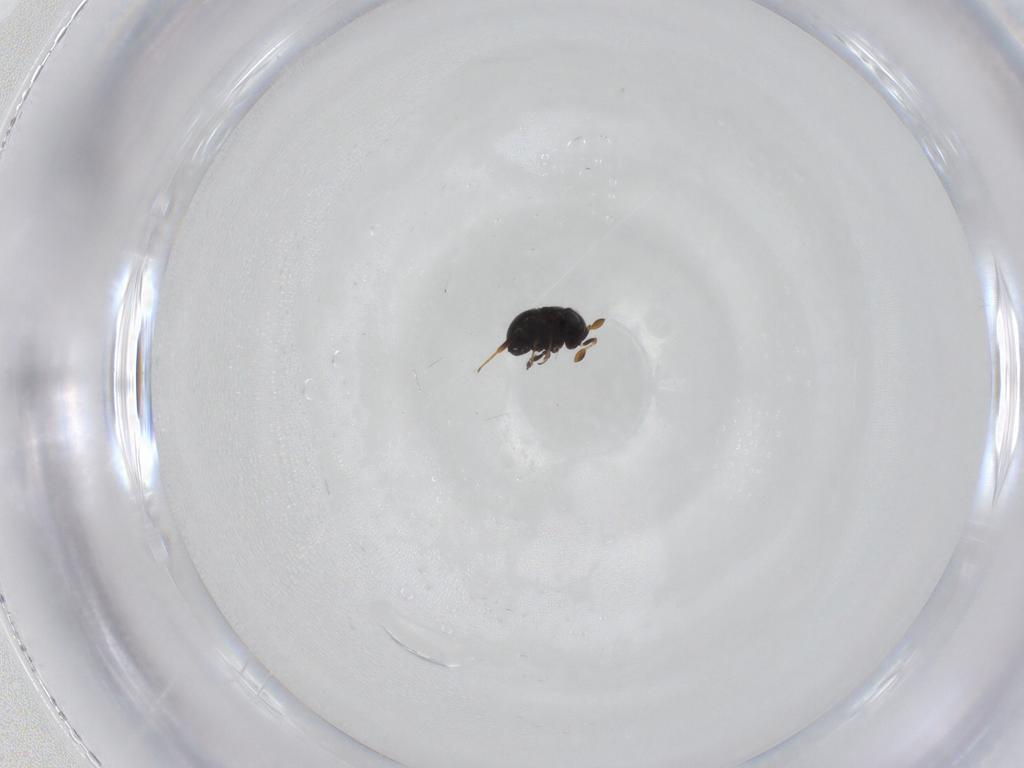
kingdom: Animalia
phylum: Arthropoda
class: Insecta
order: Hymenoptera
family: Scelionidae
